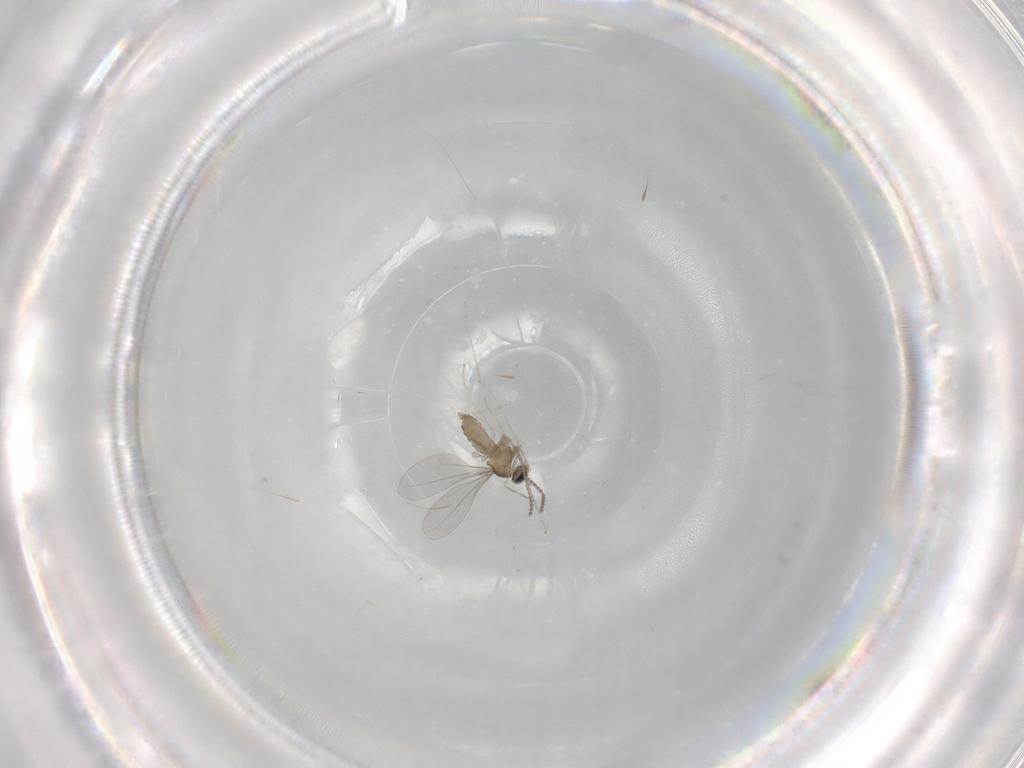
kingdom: Animalia
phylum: Arthropoda
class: Insecta
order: Diptera
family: Cecidomyiidae
